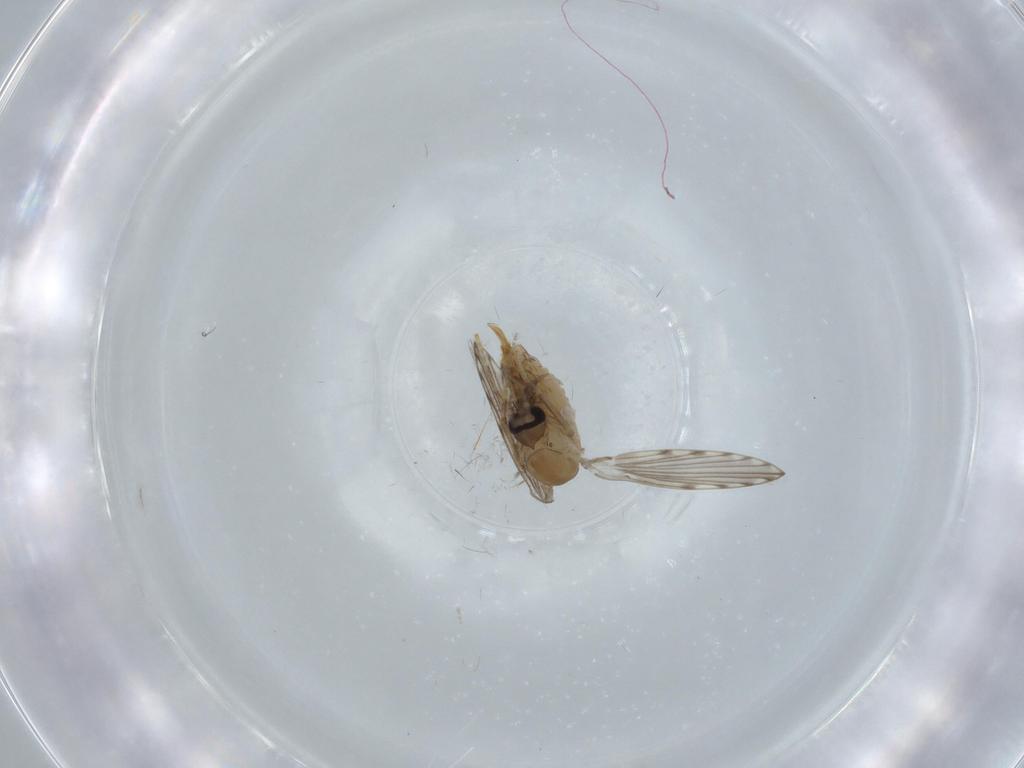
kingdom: Animalia
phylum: Arthropoda
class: Insecta
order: Diptera
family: Psychodidae
